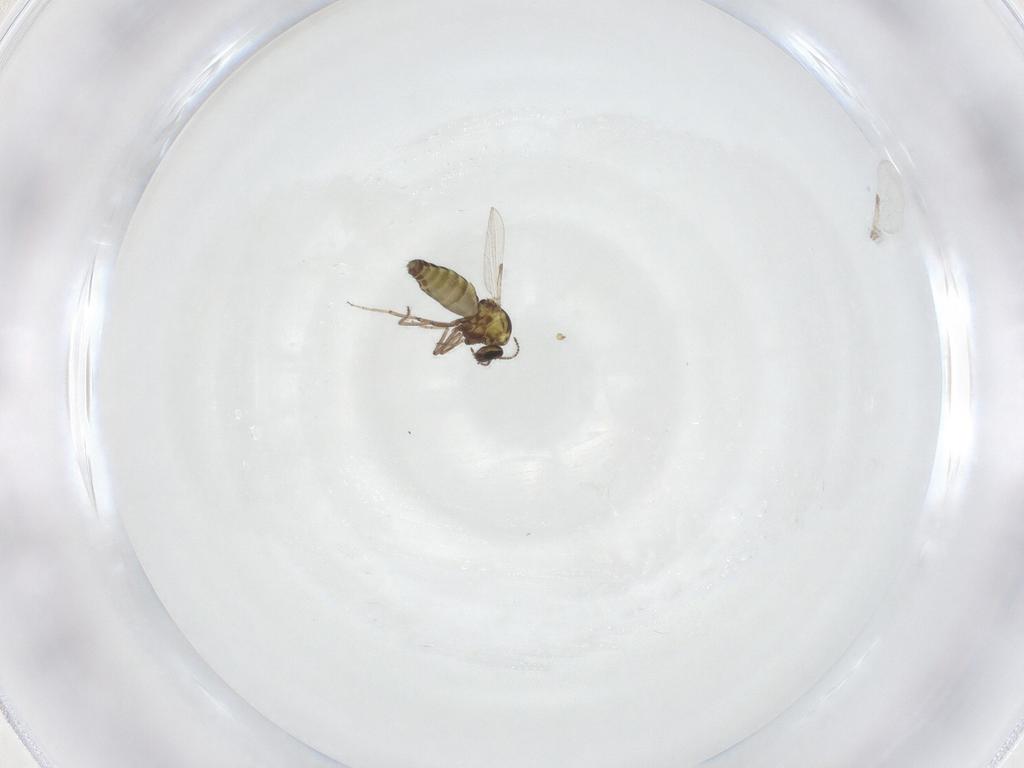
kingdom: Animalia
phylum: Arthropoda
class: Insecta
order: Diptera
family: Ceratopogonidae
